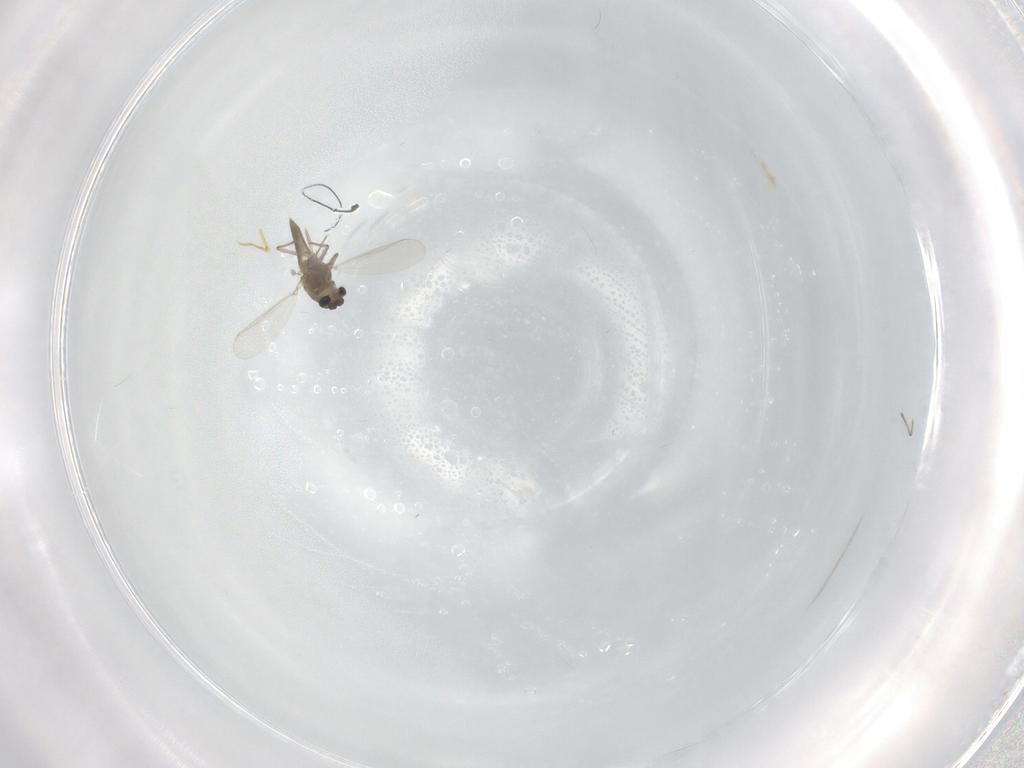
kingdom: Animalia
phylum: Arthropoda
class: Insecta
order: Diptera
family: Chironomidae
